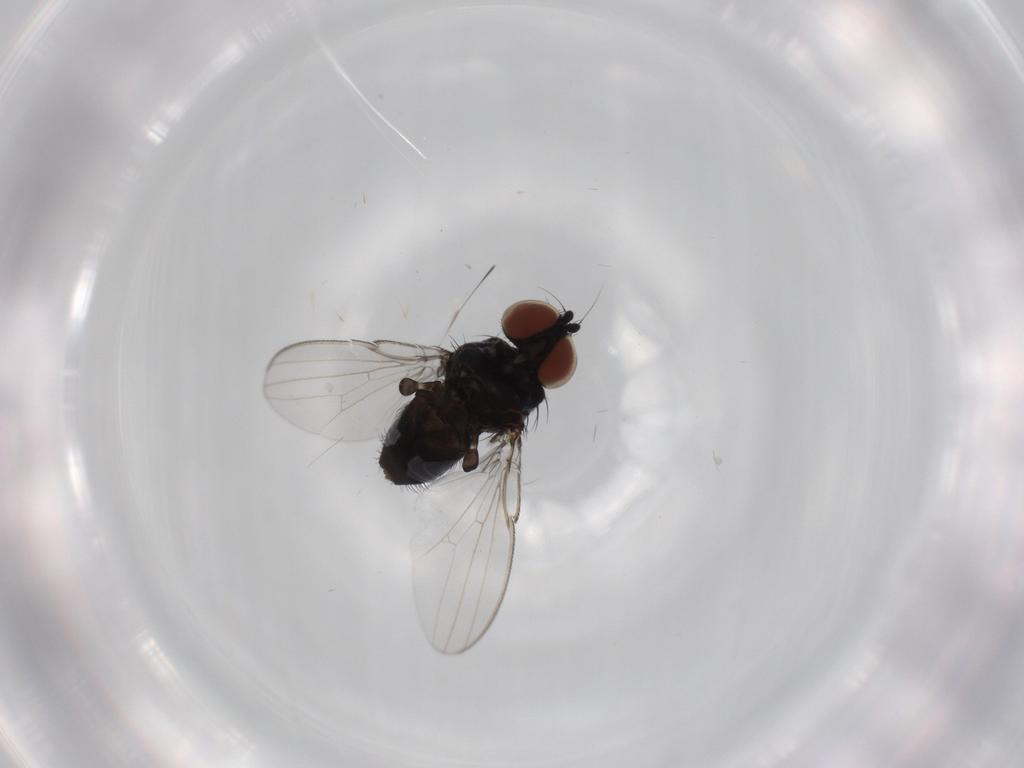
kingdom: Animalia
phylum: Arthropoda
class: Insecta
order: Diptera
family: Milichiidae
